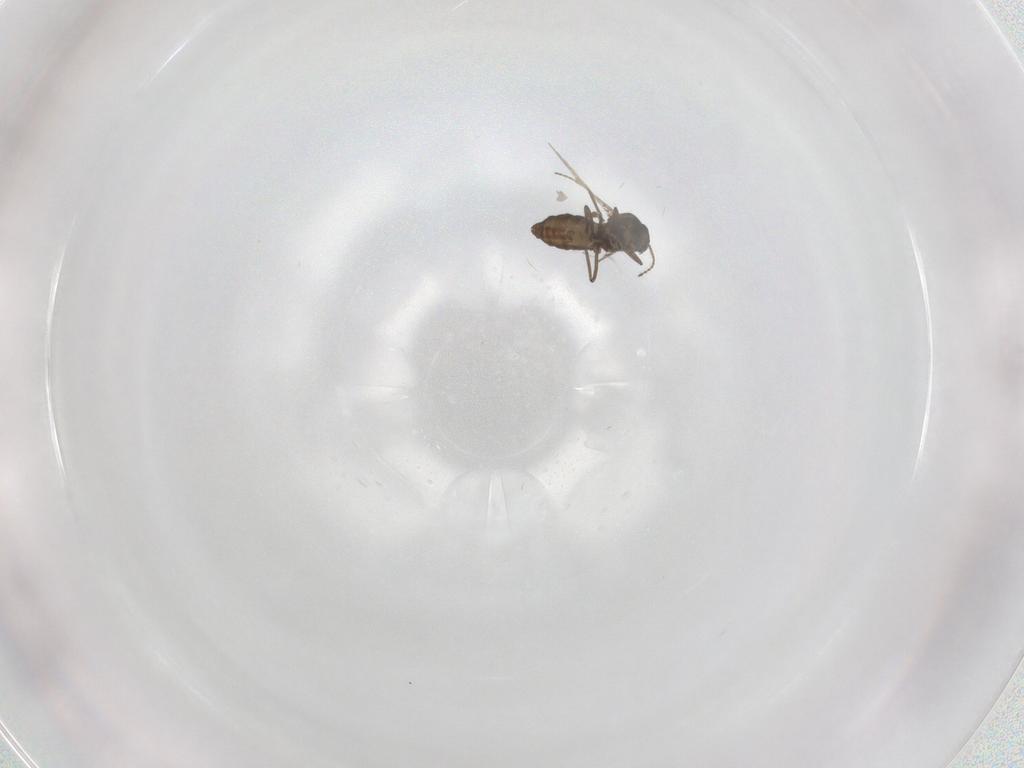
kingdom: Animalia
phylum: Arthropoda
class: Insecta
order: Diptera
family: Ceratopogonidae
